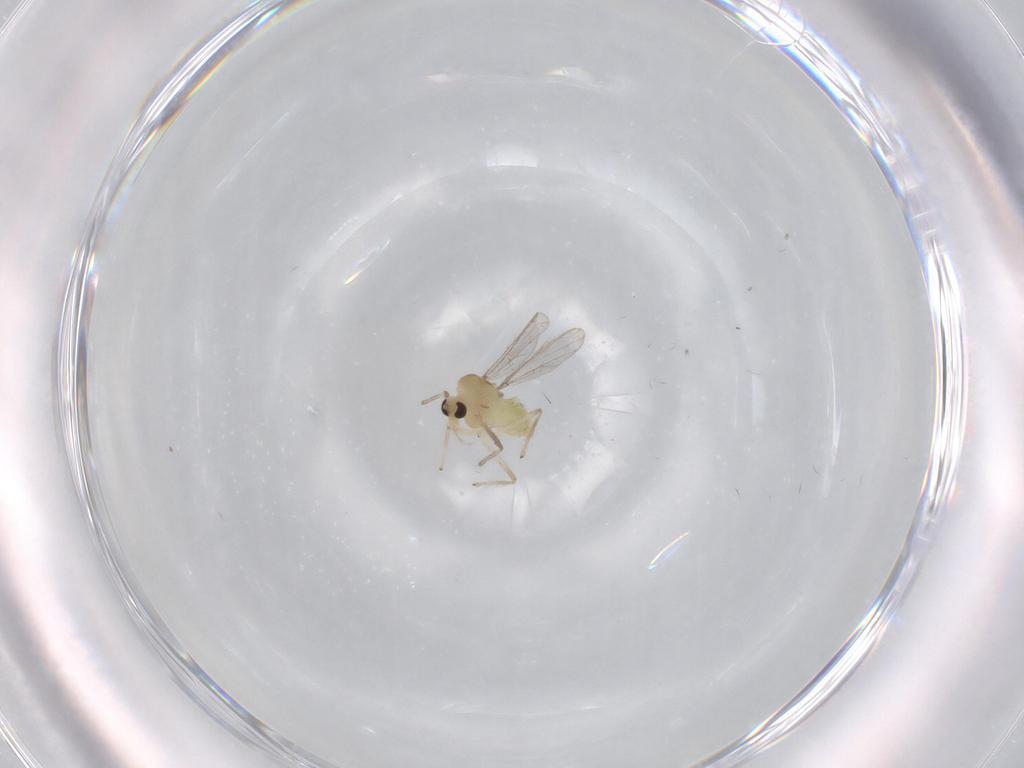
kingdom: Animalia
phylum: Arthropoda
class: Insecta
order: Diptera
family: Chironomidae
